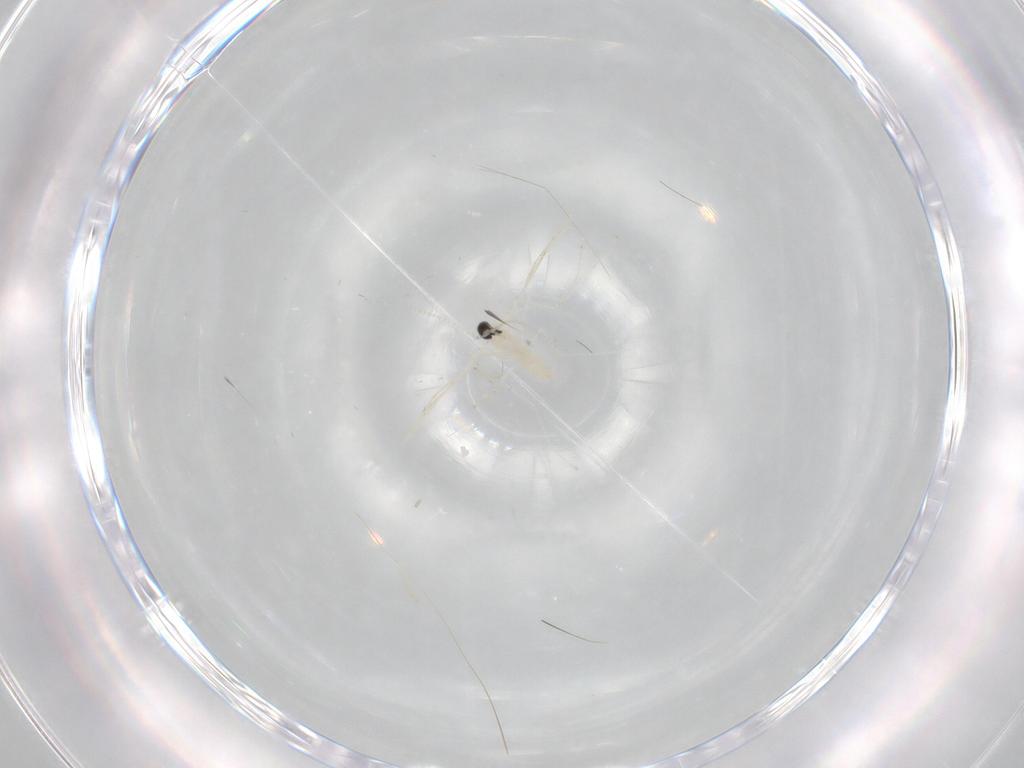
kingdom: Animalia
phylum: Arthropoda
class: Insecta
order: Diptera
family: Cecidomyiidae
